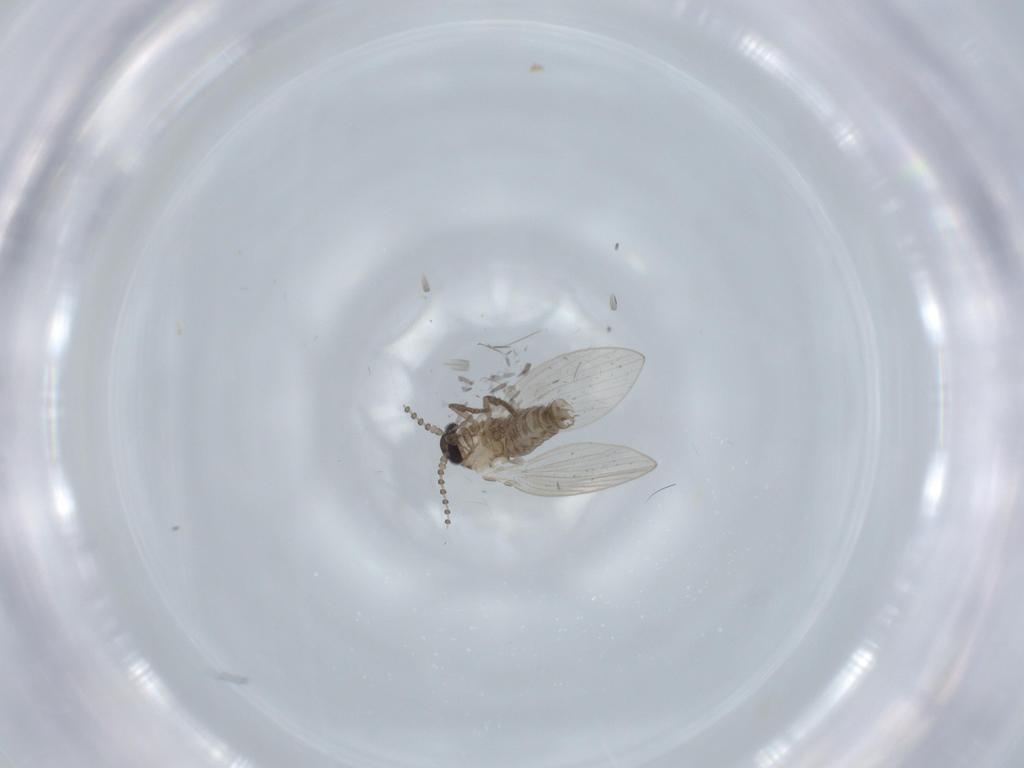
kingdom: Animalia
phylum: Arthropoda
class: Insecta
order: Diptera
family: Psychodidae
